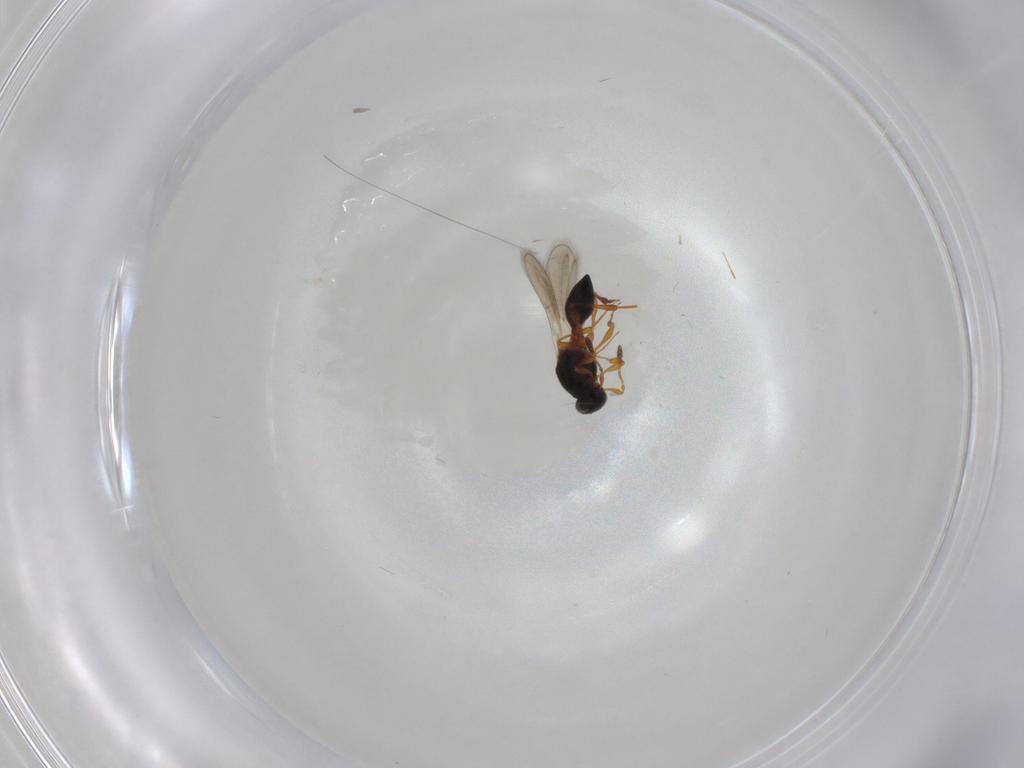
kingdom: Animalia
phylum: Arthropoda
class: Insecta
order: Hymenoptera
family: Platygastridae
